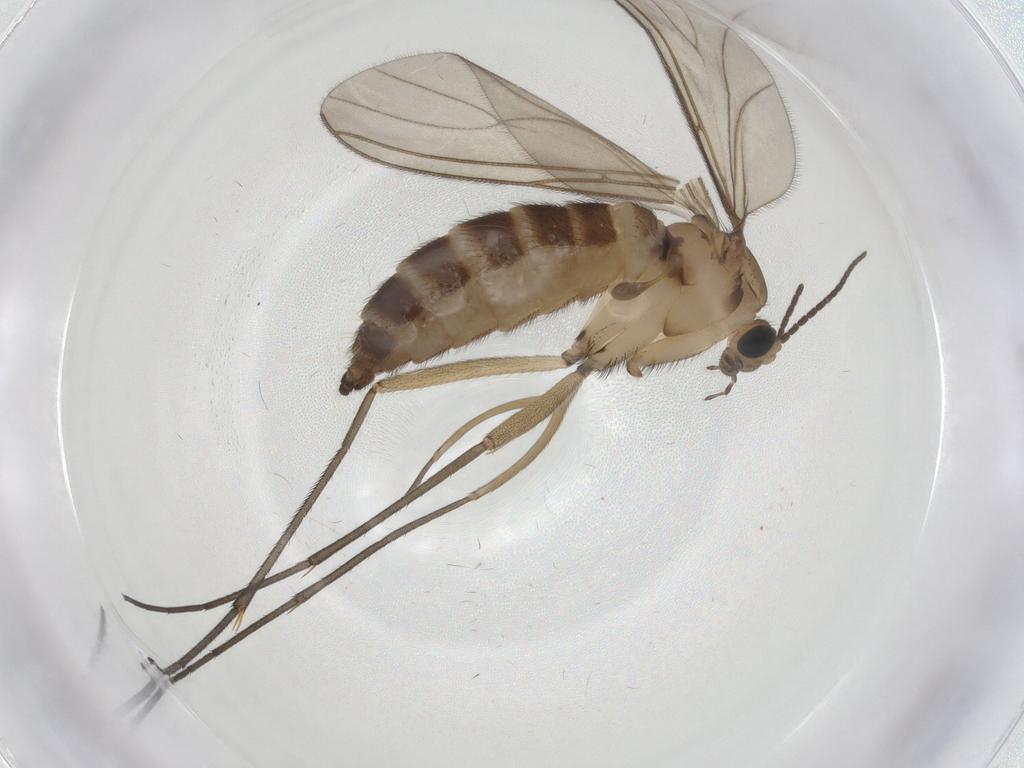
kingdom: Animalia
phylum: Arthropoda
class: Insecta
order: Diptera
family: Sciaridae
